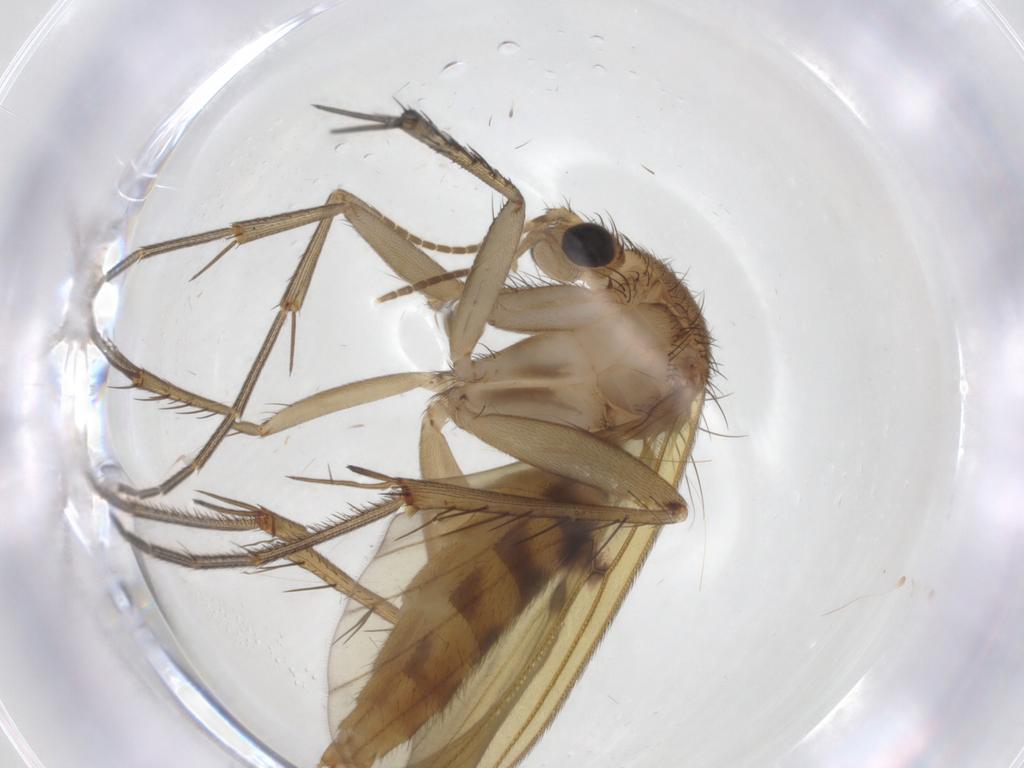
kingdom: Animalia
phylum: Arthropoda
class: Insecta
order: Diptera
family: Mycetophilidae
